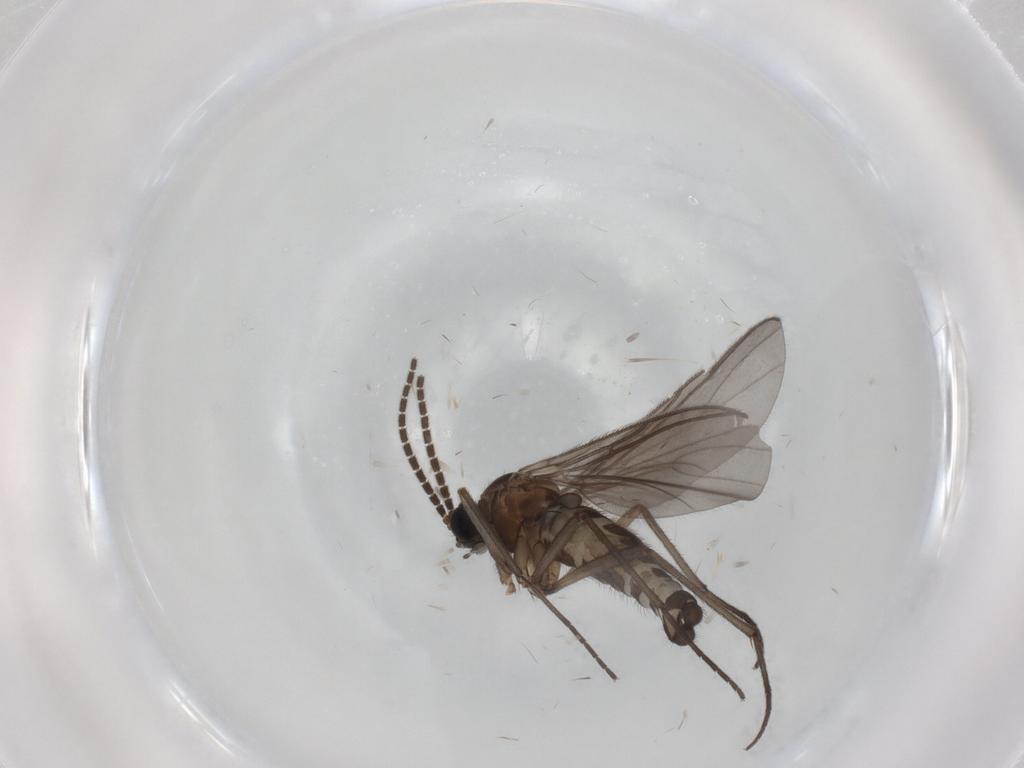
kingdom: Animalia
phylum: Arthropoda
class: Insecta
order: Diptera
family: Sciaridae
